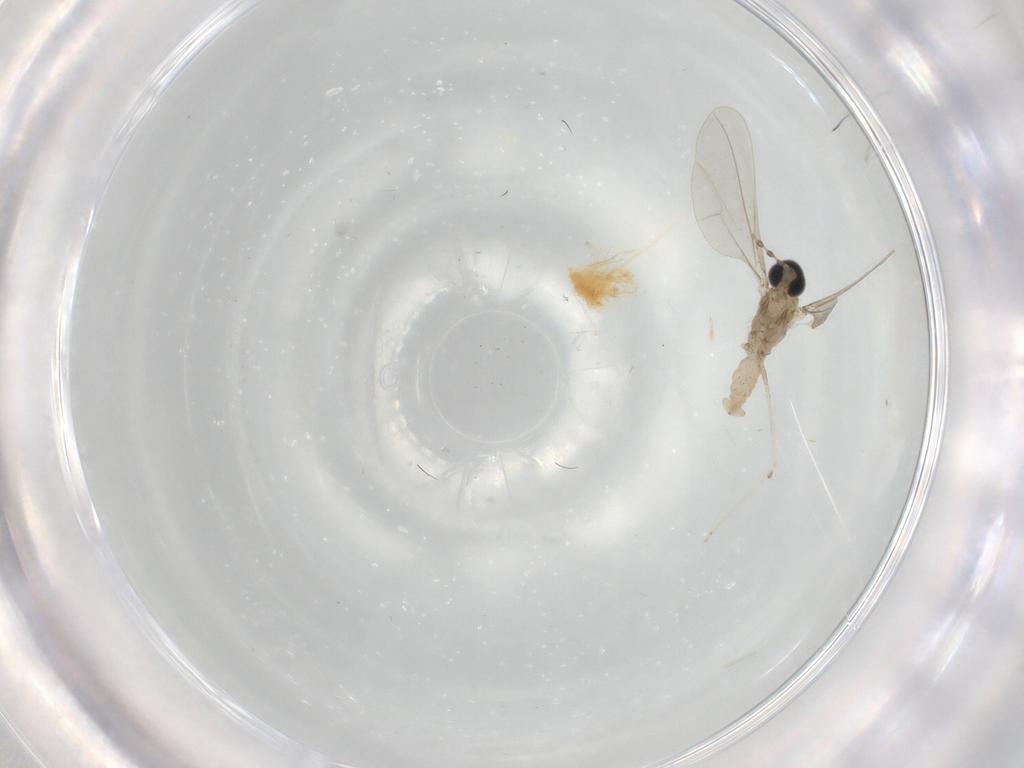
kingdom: Animalia
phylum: Arthropoda
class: Insecta
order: Diptera
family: Cecidomyiidae
